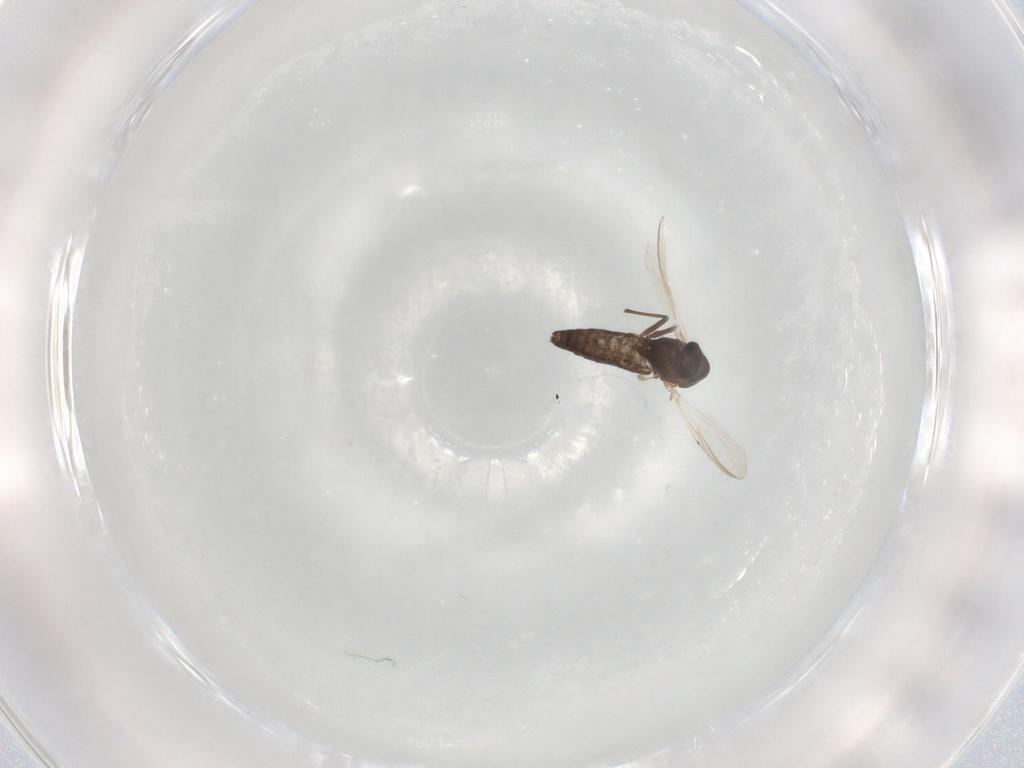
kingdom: Animalia
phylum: Arthropoda
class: Insecta
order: Diptera
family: Chironomidae
